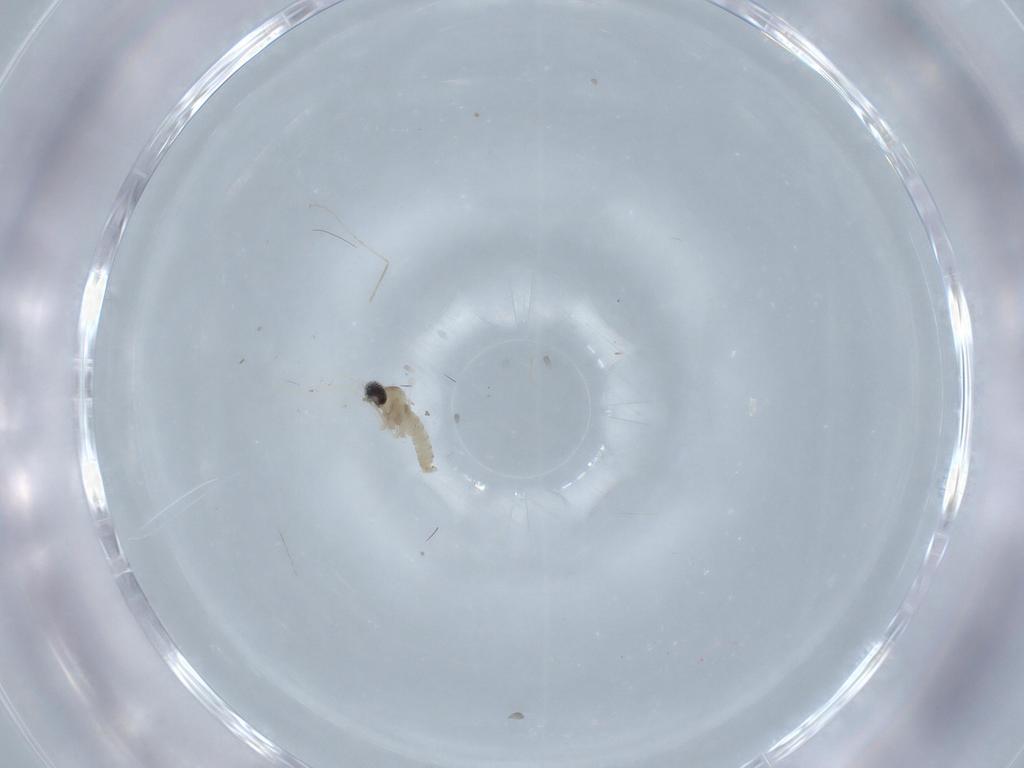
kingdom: Animalia
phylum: Arthropoda
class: Insecta
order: Diptera
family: Cecidomyiidae
